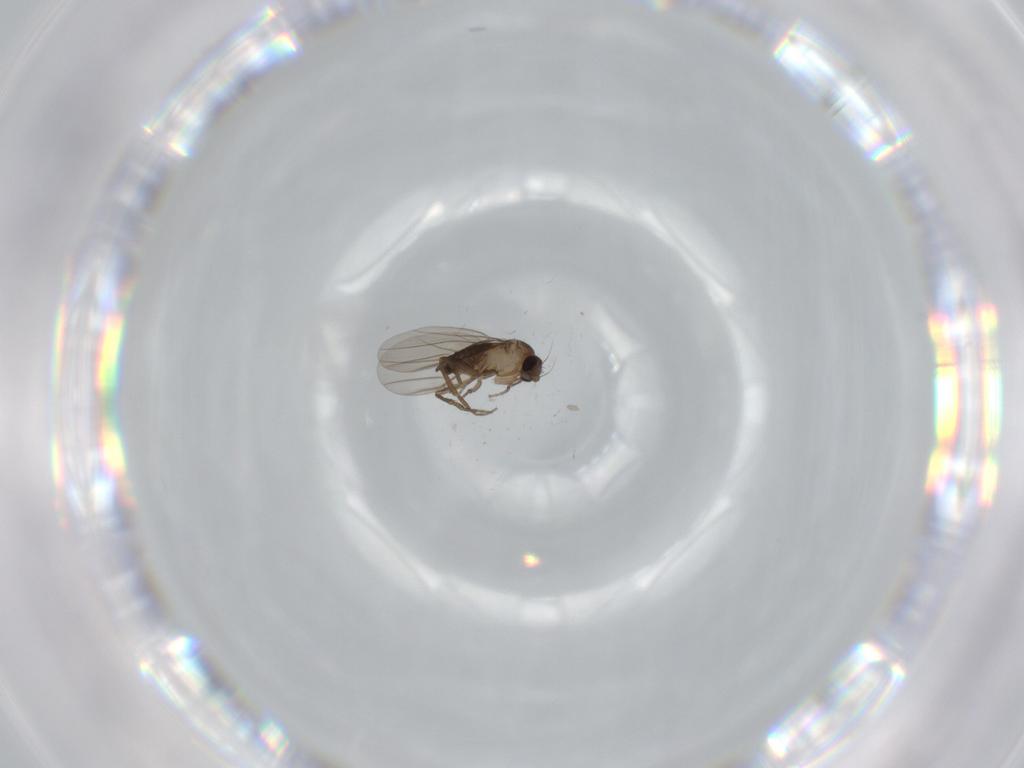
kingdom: Animalia
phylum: Arthropoda
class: Insecta
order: Diptera
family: Phoridae
